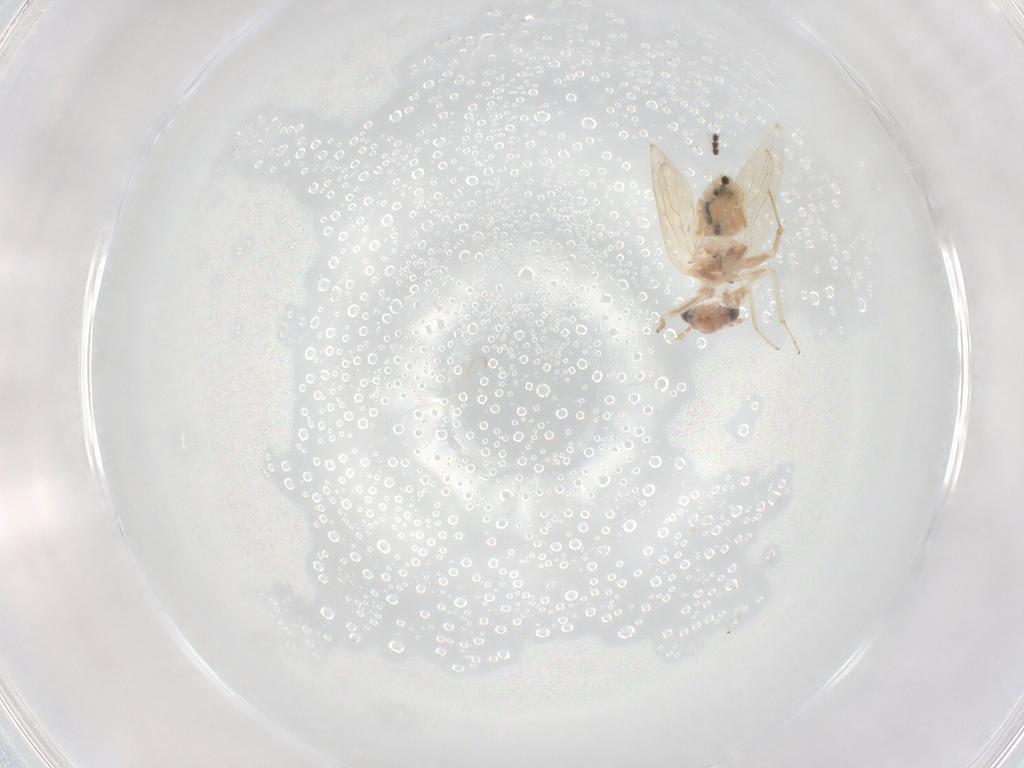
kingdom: Animalia
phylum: Arthropoda
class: Insecta
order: Psocodea
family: Lepidopsocidae
